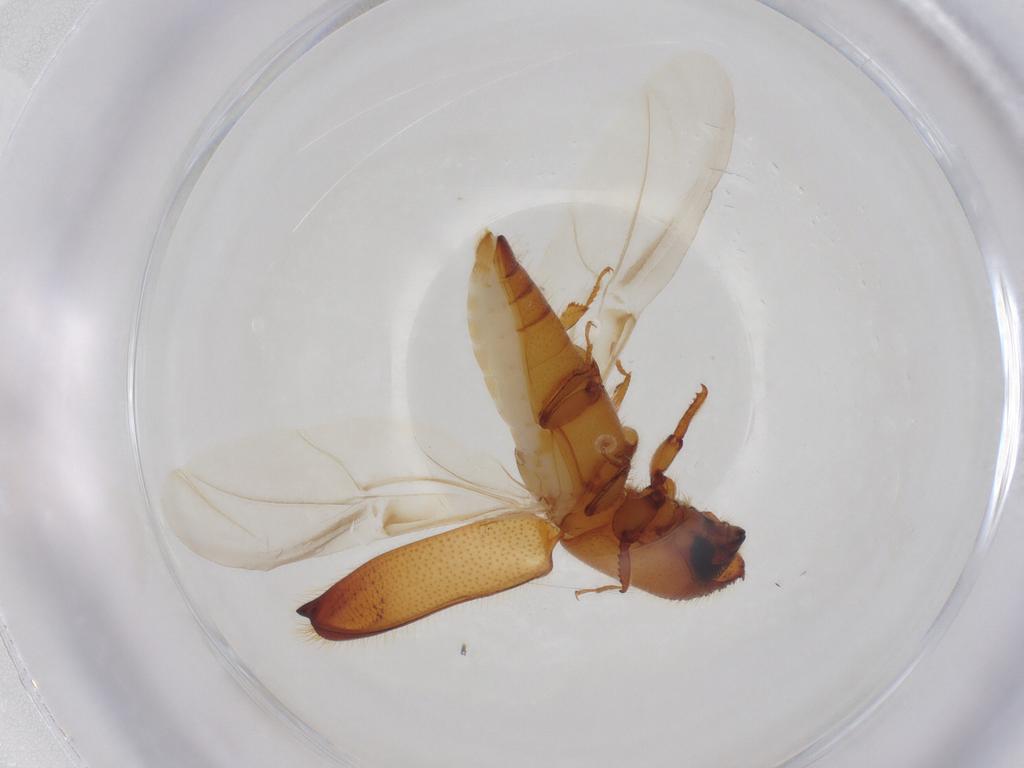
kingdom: Animalia
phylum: Arthropoda
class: Insecta
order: Coleoptera
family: Curculionidae
